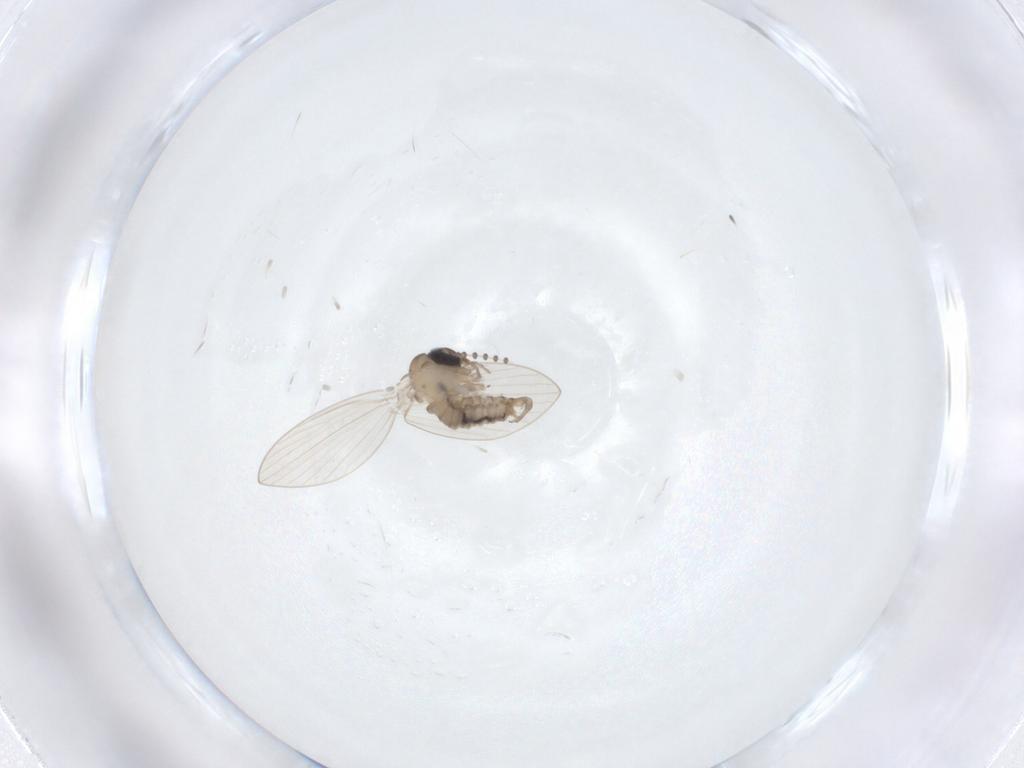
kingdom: Animalia
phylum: Arthropoda
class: Insecta
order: Diptera
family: Psychodidae
